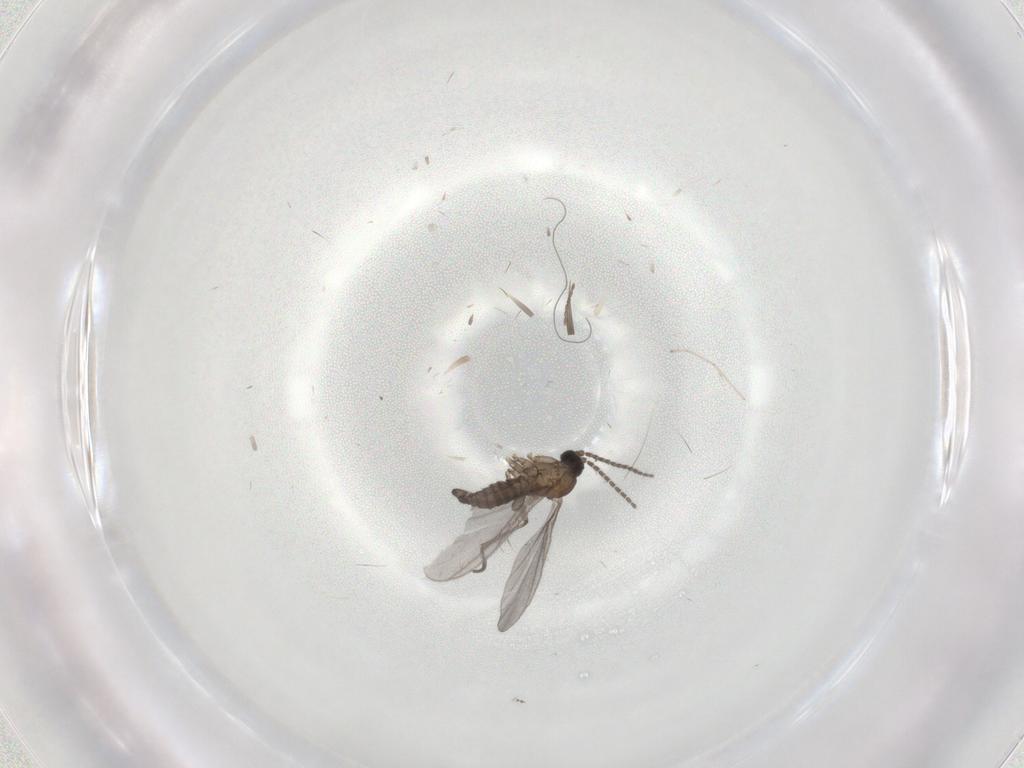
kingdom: Animalia
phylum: Arthropoda
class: Insecta
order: Diptera
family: Sciaridae
